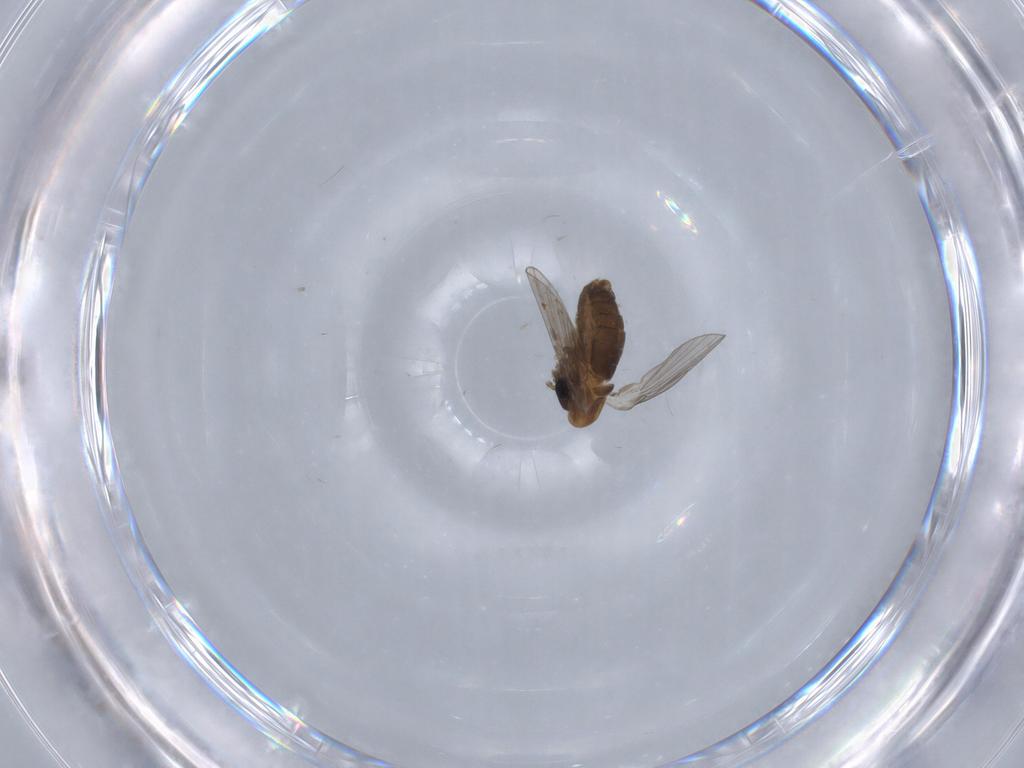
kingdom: Animalia
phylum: Arthropoda
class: Insecta
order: Diptera
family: Psychodidae
